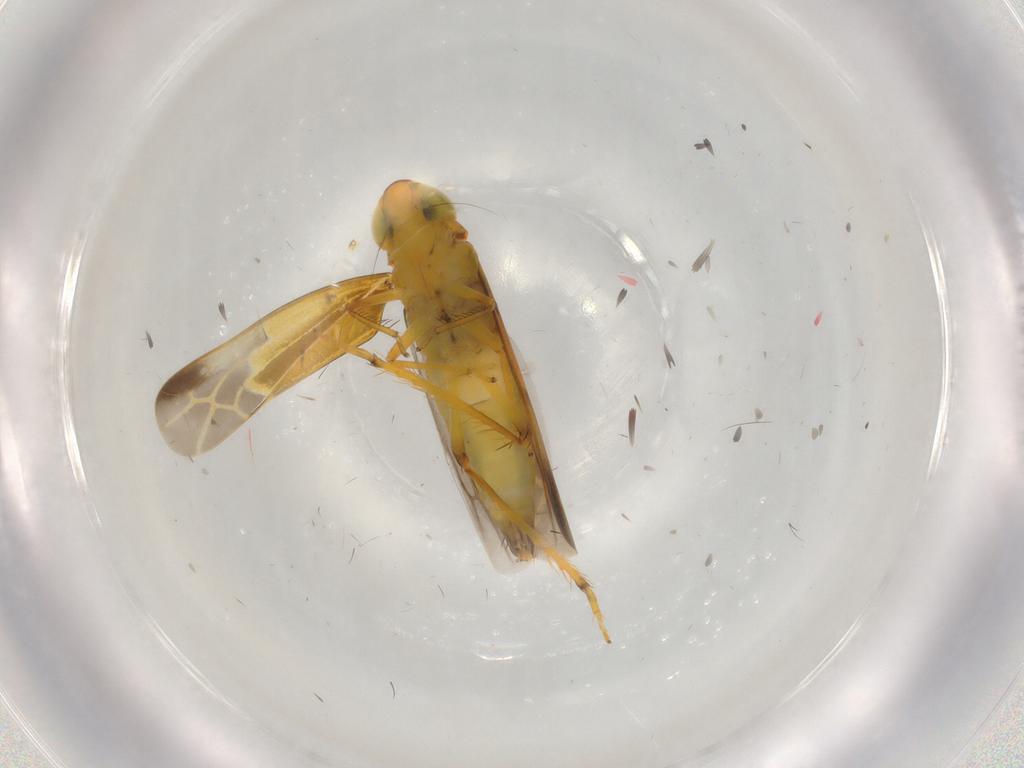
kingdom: Animalia
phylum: Arthropoda
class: Insecta
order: Hemiptera
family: Cicadellidae
